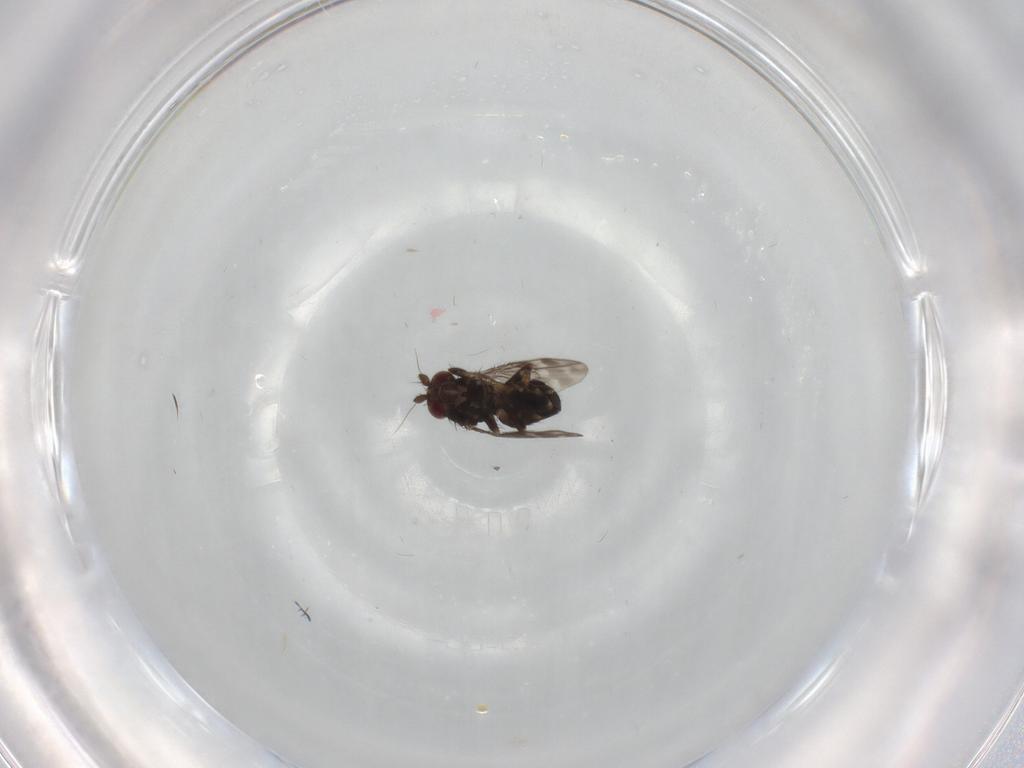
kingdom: Animalia
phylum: Arthropoda
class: Insecta
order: Diptera
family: Sphaeroceridae
